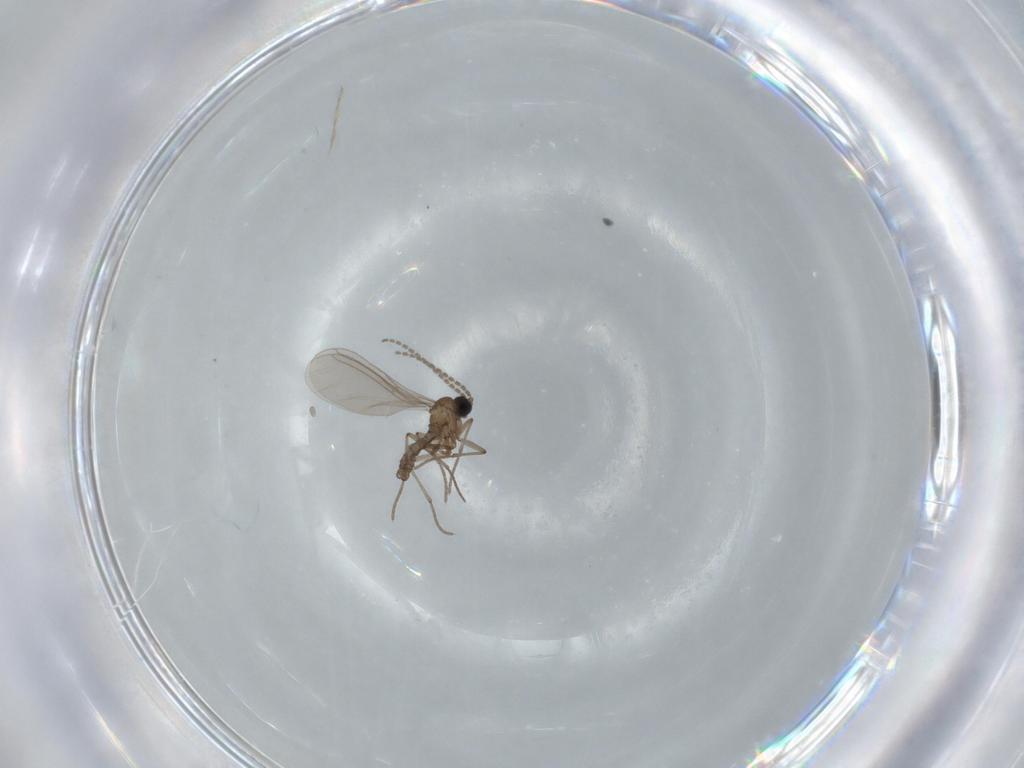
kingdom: Animalia
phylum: Arthropoda
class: Insecta
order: Diptera
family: Sciaridae
